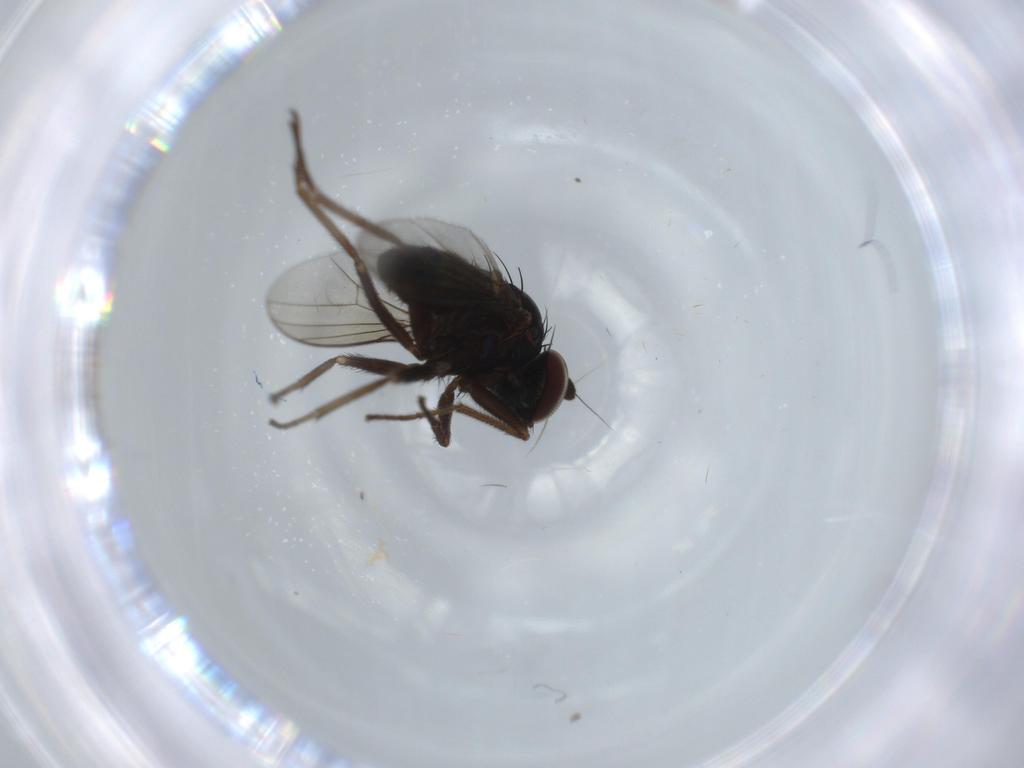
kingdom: Animalia
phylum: Arthropoda
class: Insecta
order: Diptera
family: Dolichopodidae
